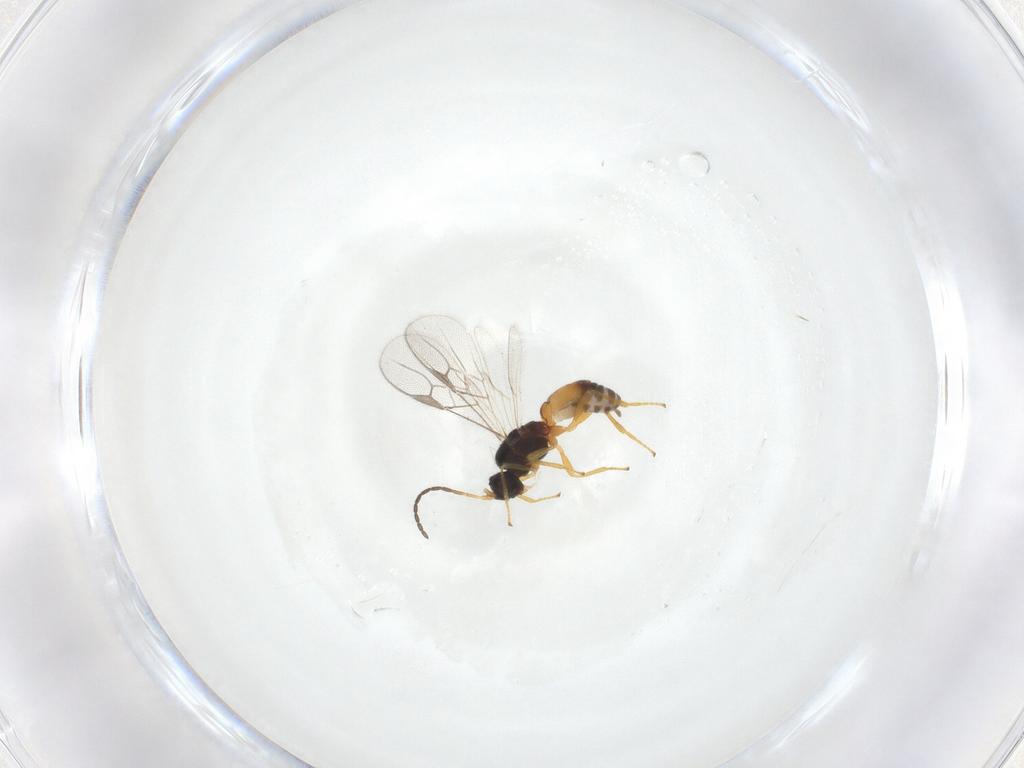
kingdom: Animalia
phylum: Arthropoda
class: Insecta
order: Hymenoptera
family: Braconidae
